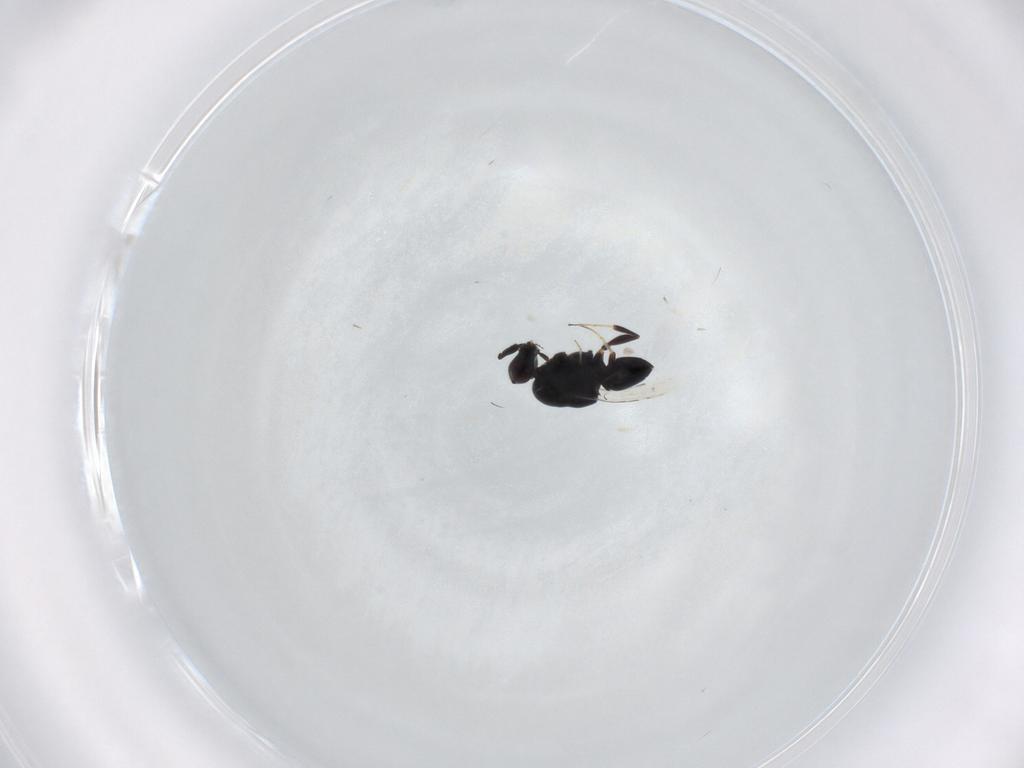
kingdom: Animalia
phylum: Arthropoda
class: Insecta
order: Hymenoptera
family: Ceraphronidae
